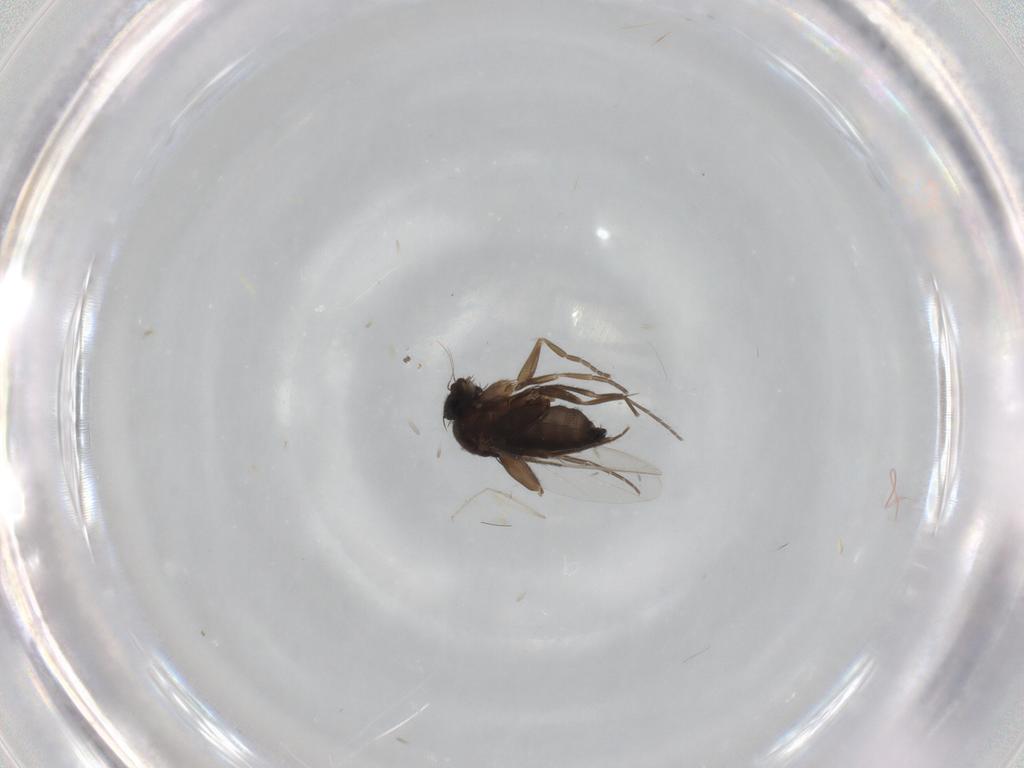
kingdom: Animalia
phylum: Arthropoda
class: Insecta
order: Diptera
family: Phoridae
